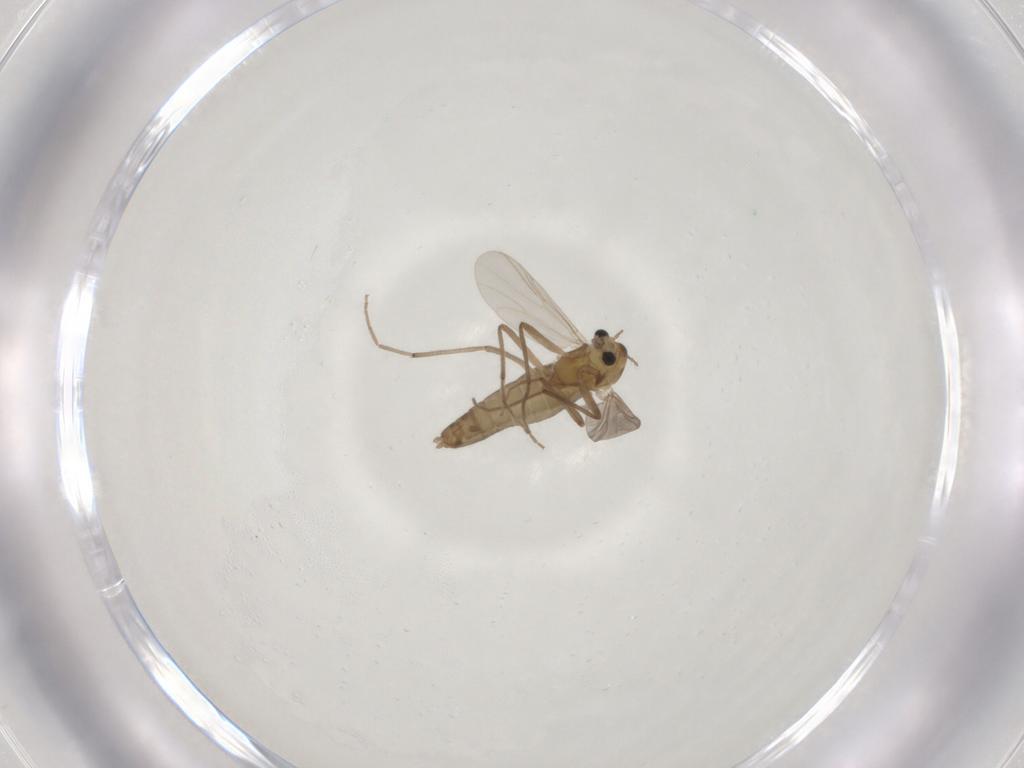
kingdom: Animalia
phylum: Arthropoda
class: Insecta
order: Diptera
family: Chironomidae
